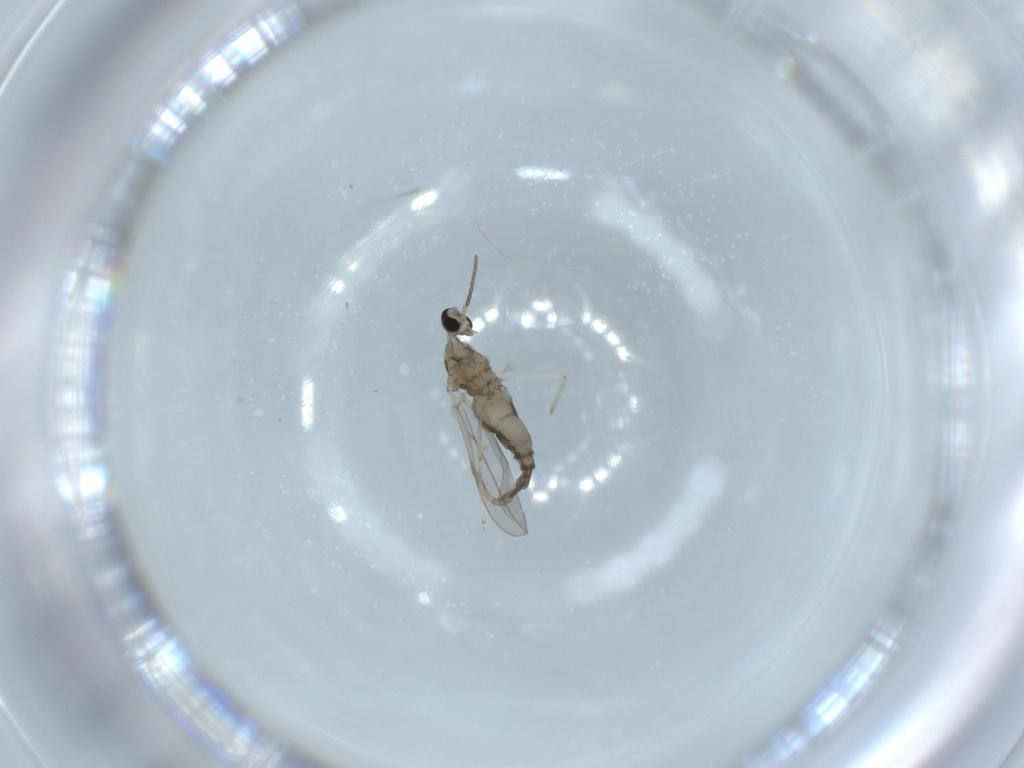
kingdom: Animalia
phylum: Arthropoda
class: Insecta
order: Diptera
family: Cecidomyiidae
